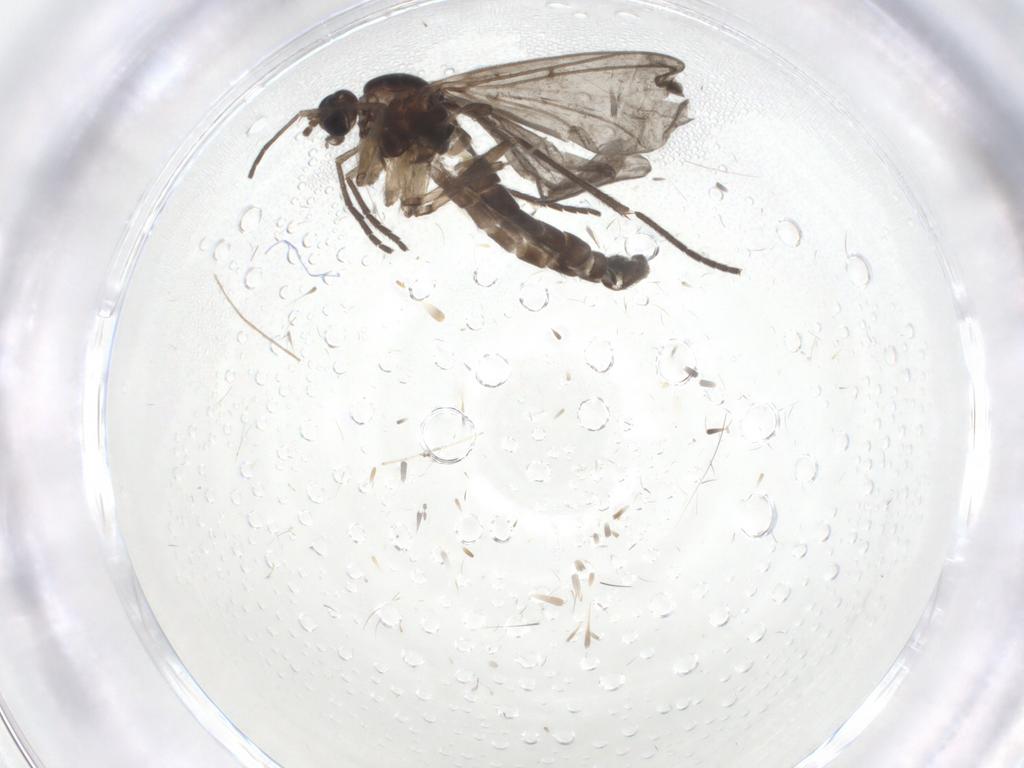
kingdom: Animalia
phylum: Arthropoda
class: Insecta
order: Diptera
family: Sciaridae
